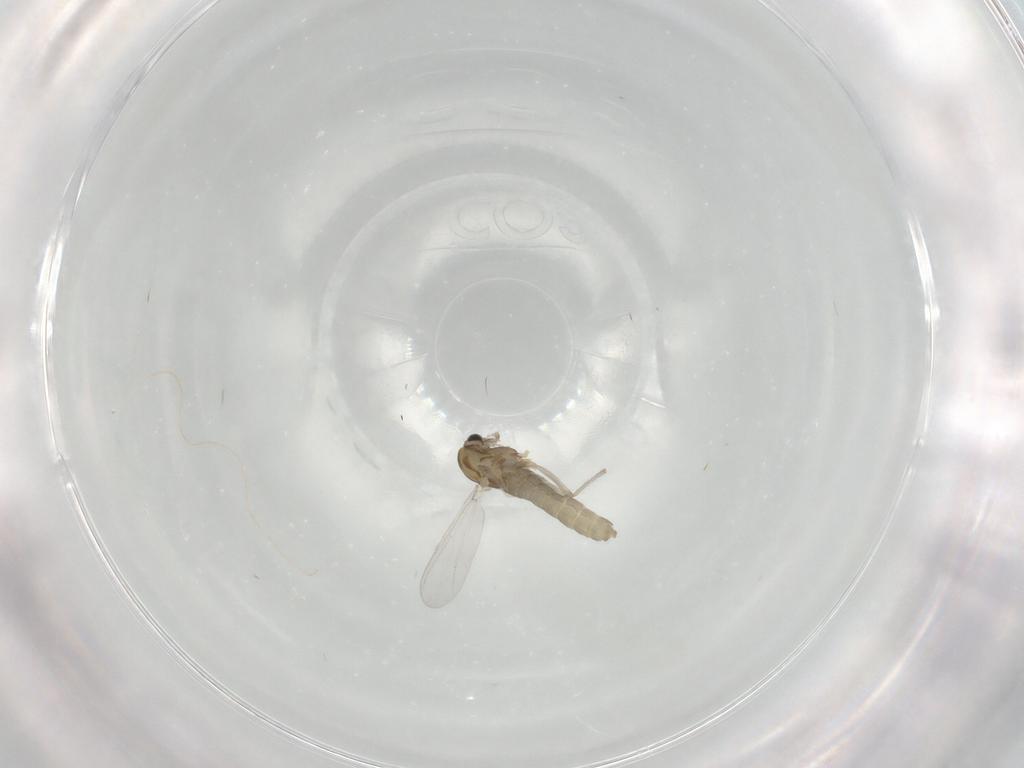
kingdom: Animalia
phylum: Arthropoda
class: Insecta
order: Diptera
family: Chironomidae
